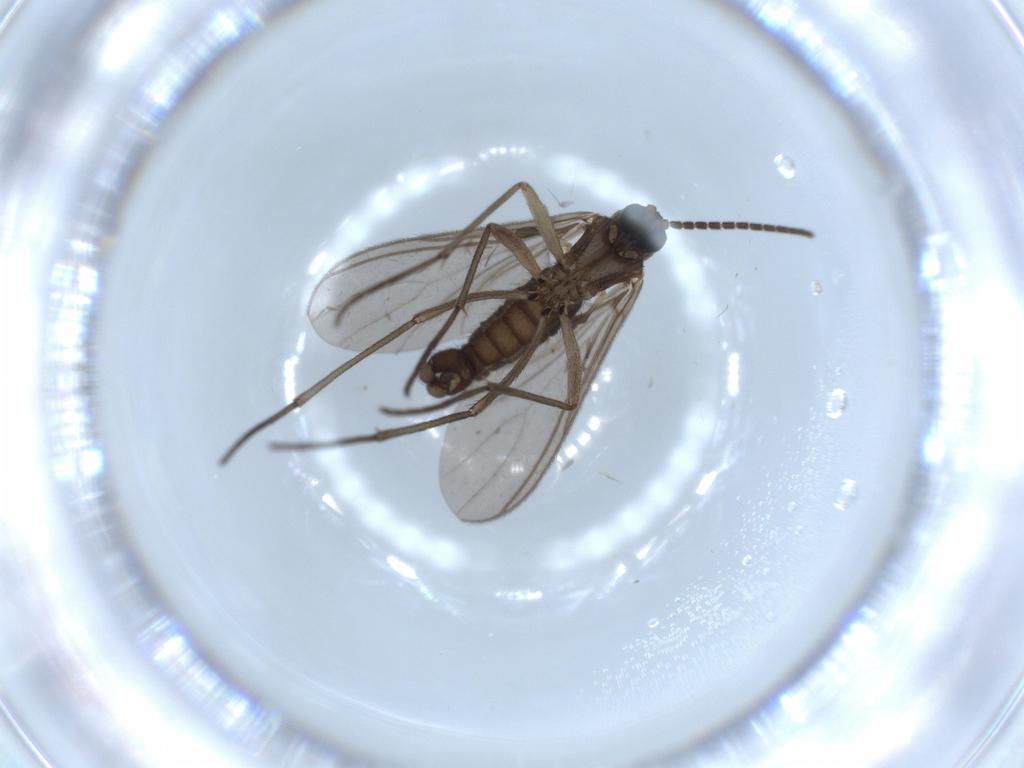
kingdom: Animalia
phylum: Arthropoda
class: Insecta
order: Diptera
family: Sciaridae
